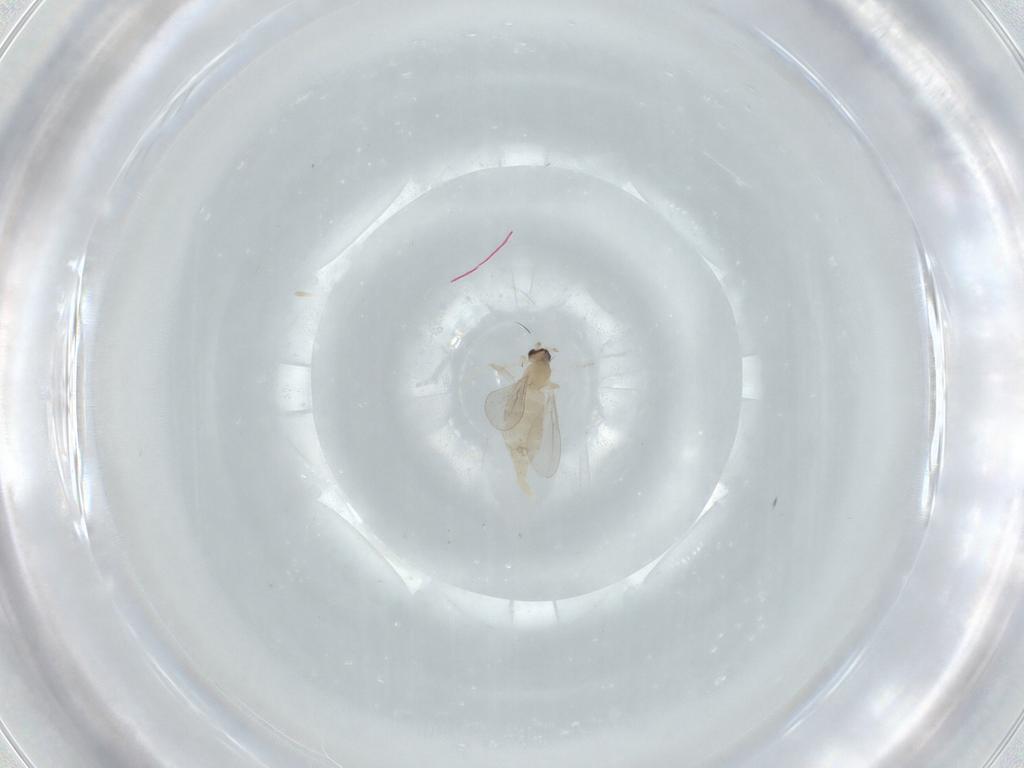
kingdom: Animalia
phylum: Arthropoda
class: Insecta
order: Diptera
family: Cecidomyiidae
